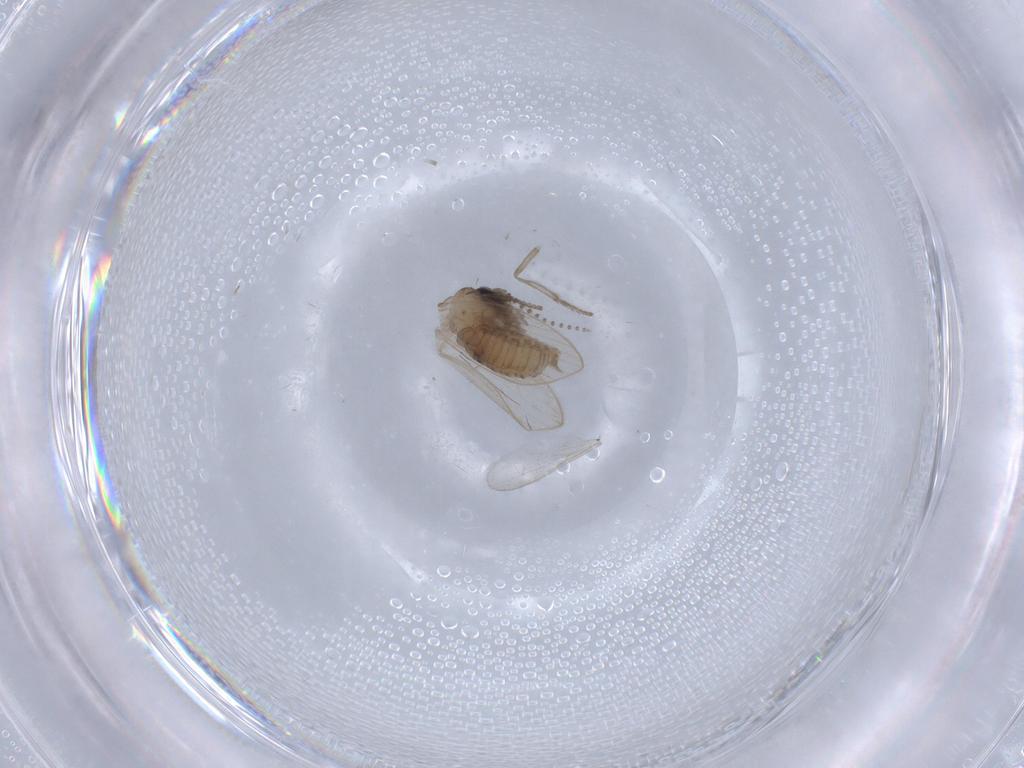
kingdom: Animalia
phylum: Arthropoda
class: Insecta
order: Diptera
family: Psychodidae
